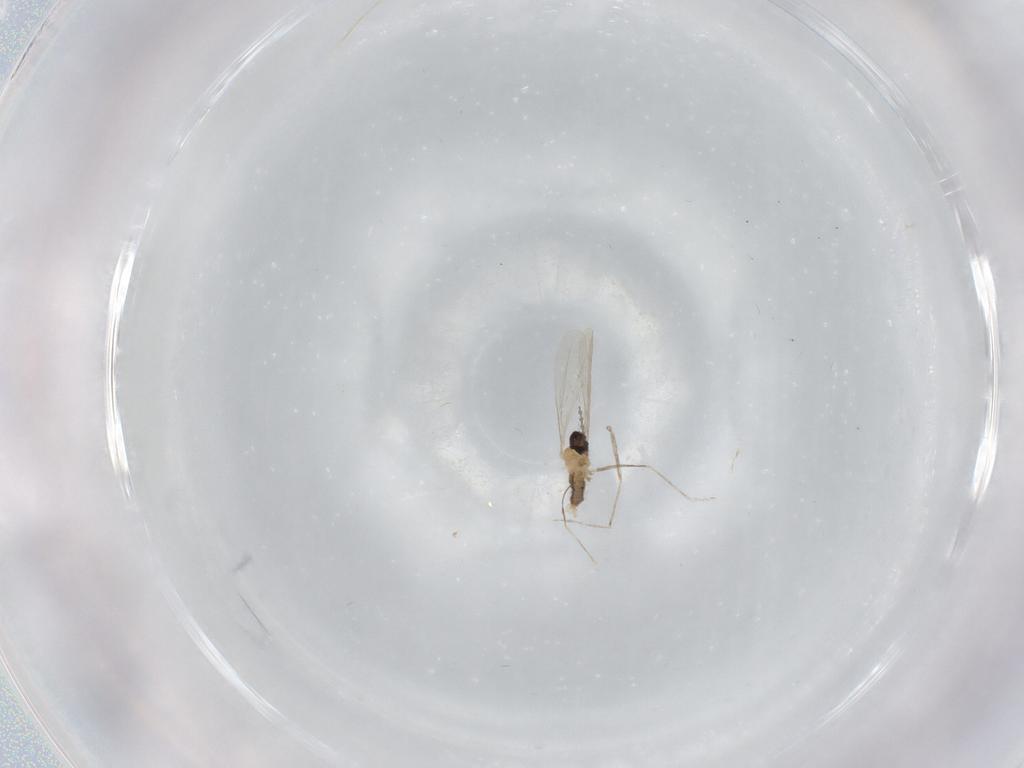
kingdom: Animalia
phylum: Arthropoda
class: Insecta
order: Diptera
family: Cecidomyiidae
